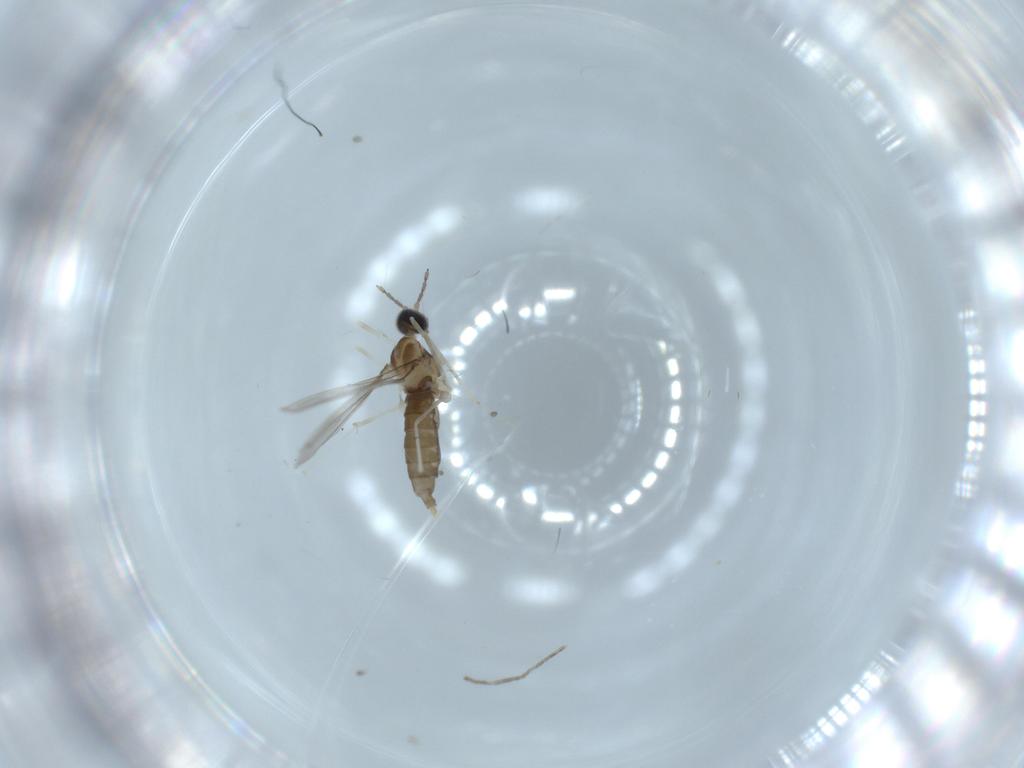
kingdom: Animalia
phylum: Arthropoda
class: Insecta
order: Diptera
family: Cecidomyiidae
